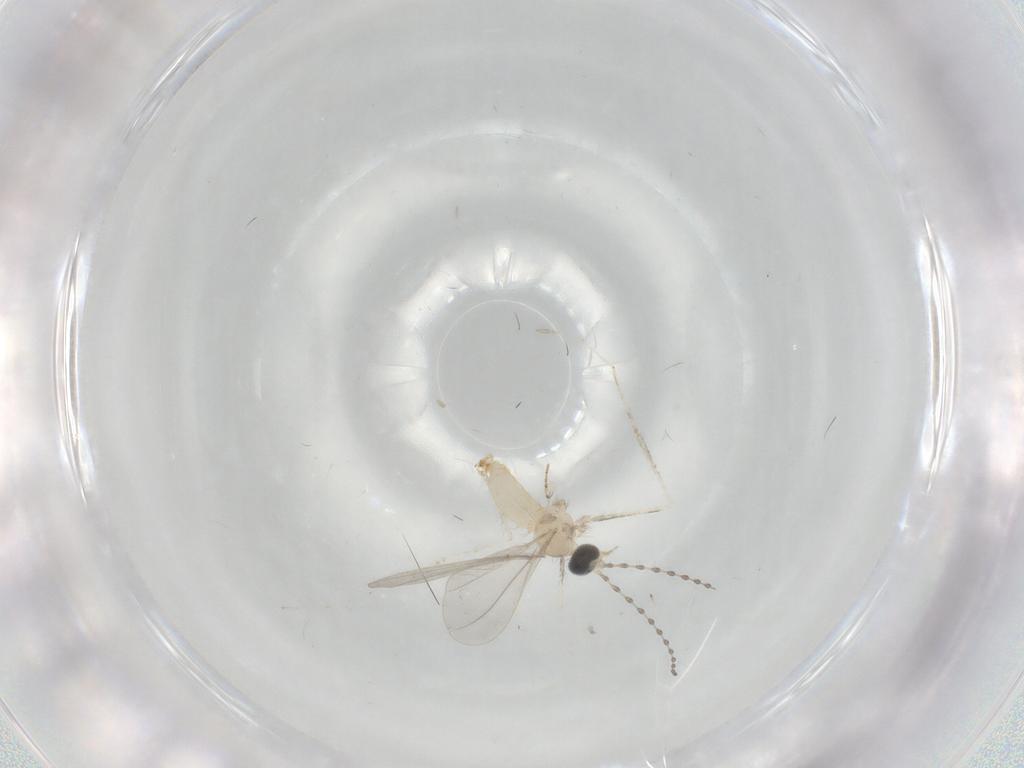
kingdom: Animalia
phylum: Arthropoda
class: Insecta
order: Diptera
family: Cecidomyiidae
